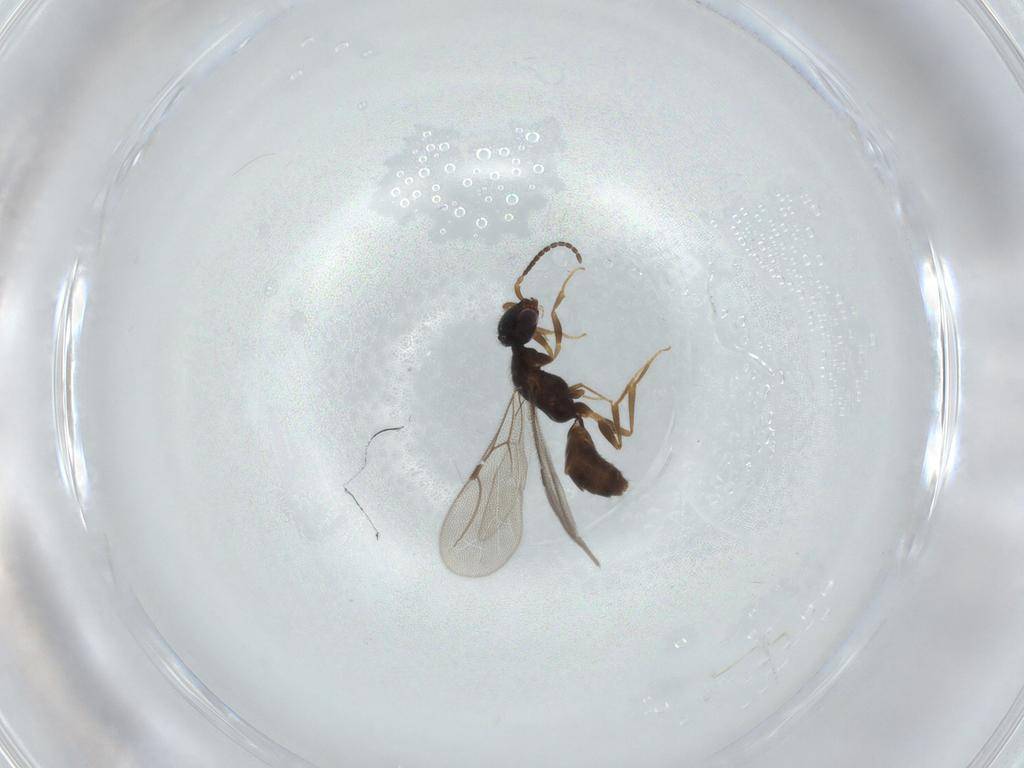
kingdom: Animalia
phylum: Arthropoda
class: Insecta
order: Hymenoptera
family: Bethylidae
